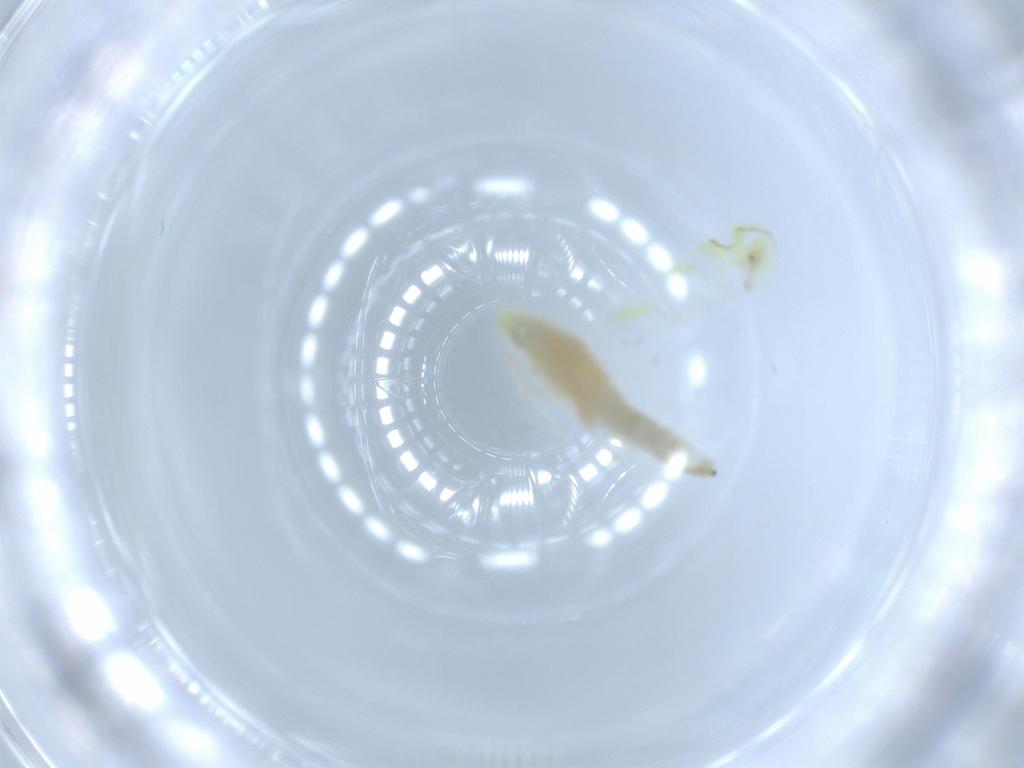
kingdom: Animalia
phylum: Arthropoda
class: Insecta
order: Hemiptera
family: Cicadellidae
